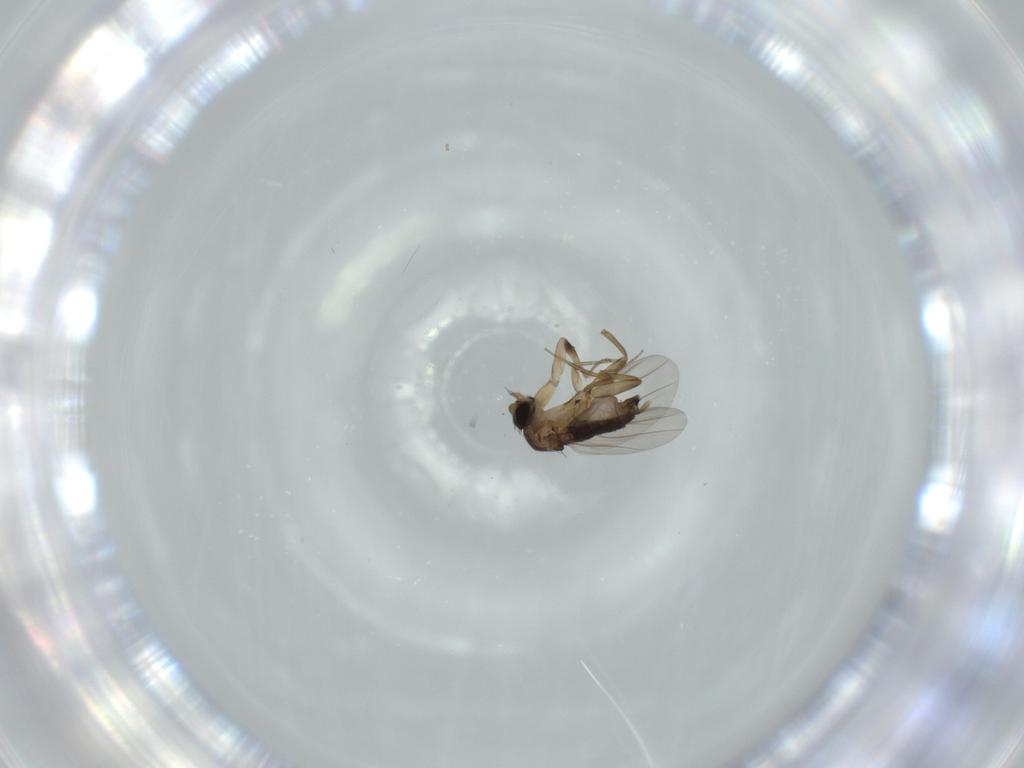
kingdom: Animalia
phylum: Arthropoda
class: Insecta
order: Diptera
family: Phoridae
